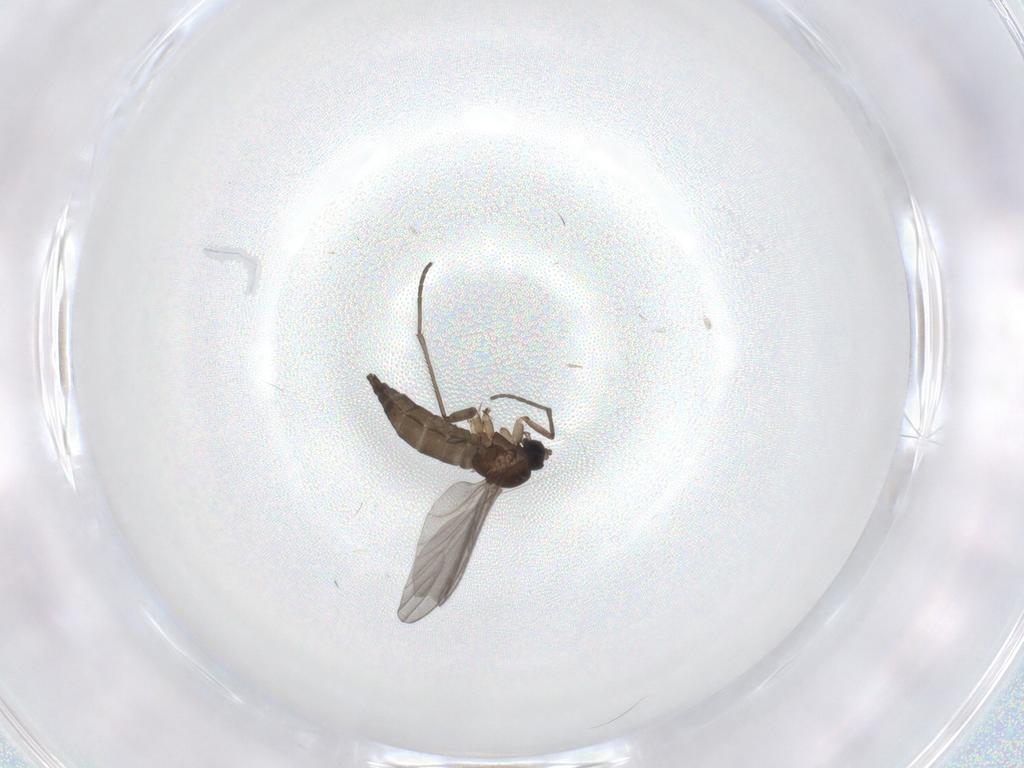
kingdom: Animalia
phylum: Arthropoda
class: Insecta
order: Diptera
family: Sciaridae
